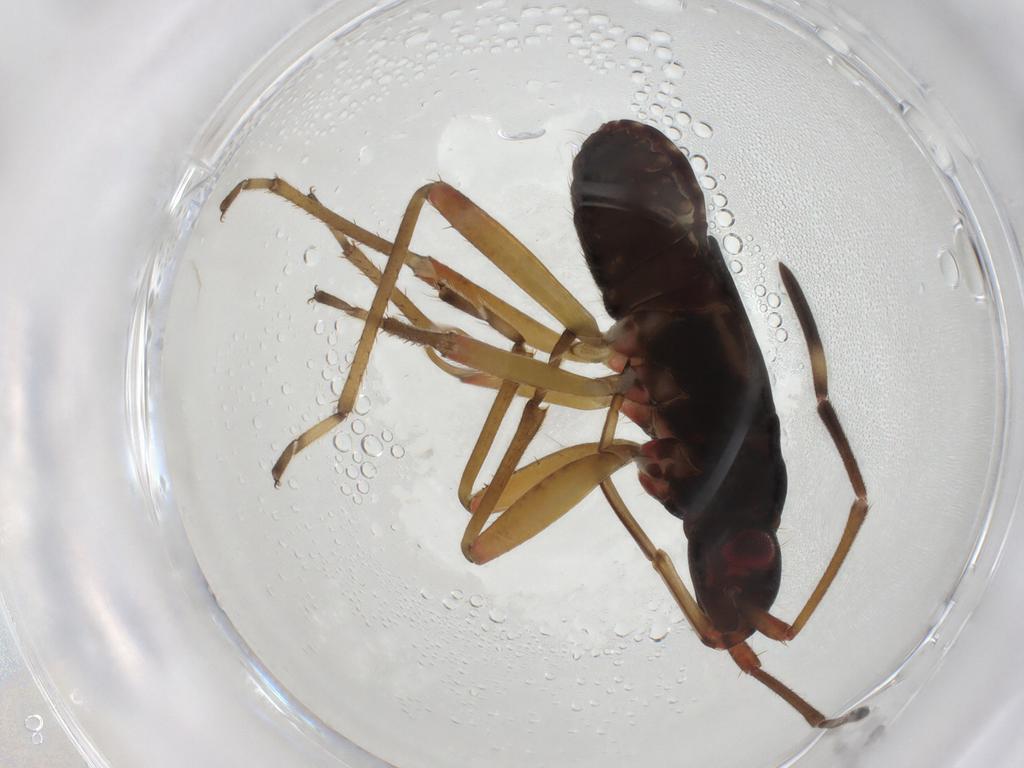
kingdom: Animalia
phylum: Arthropoda
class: Insecta
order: Hemiptera
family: Rhyparochromidae
